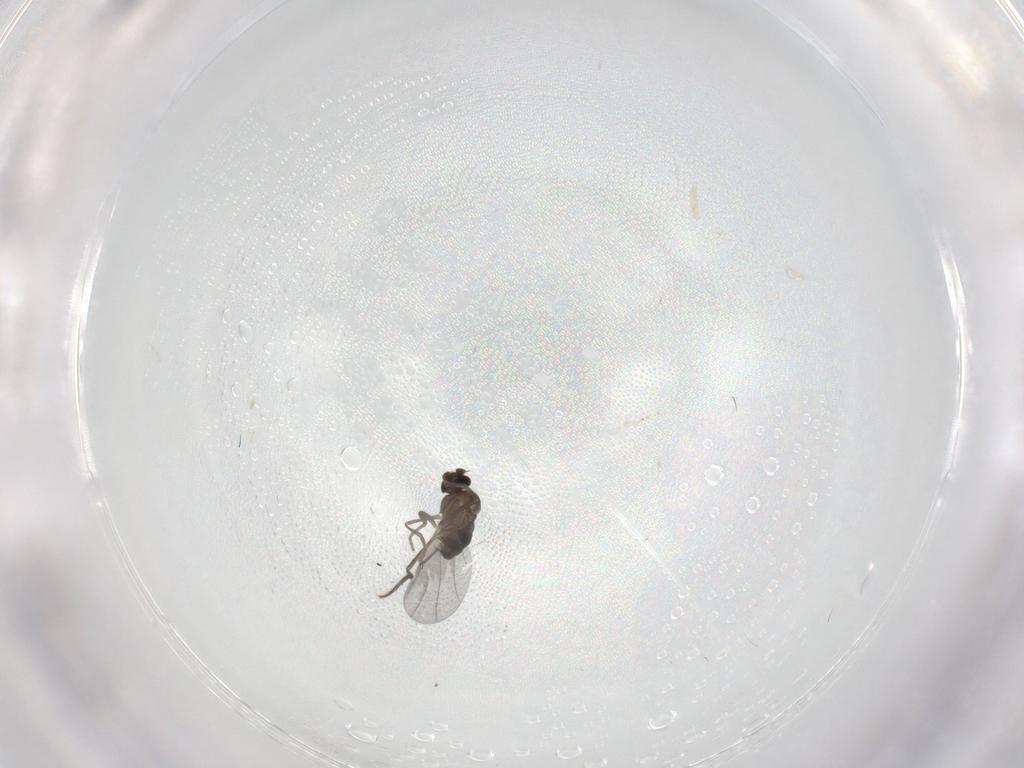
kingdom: Animalia
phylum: Arthropoda
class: Insecta
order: Diptera
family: Phoridae
